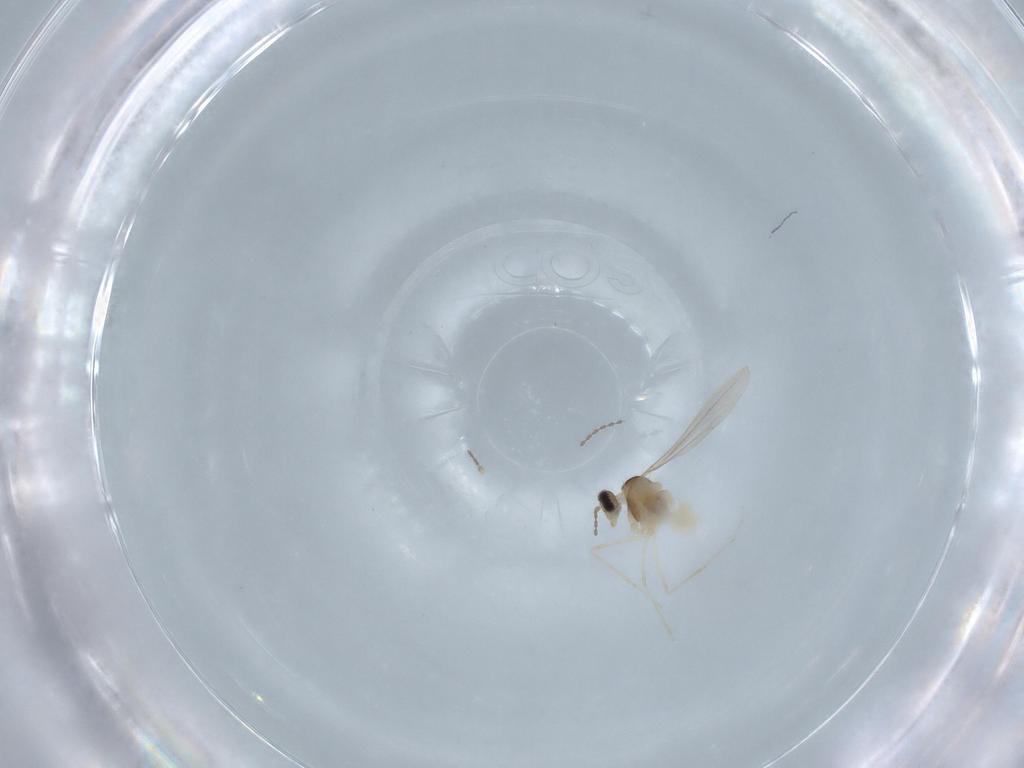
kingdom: Animalia
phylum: Arthropoda
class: Insecta
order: Diptera
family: Cecidomyiidae
